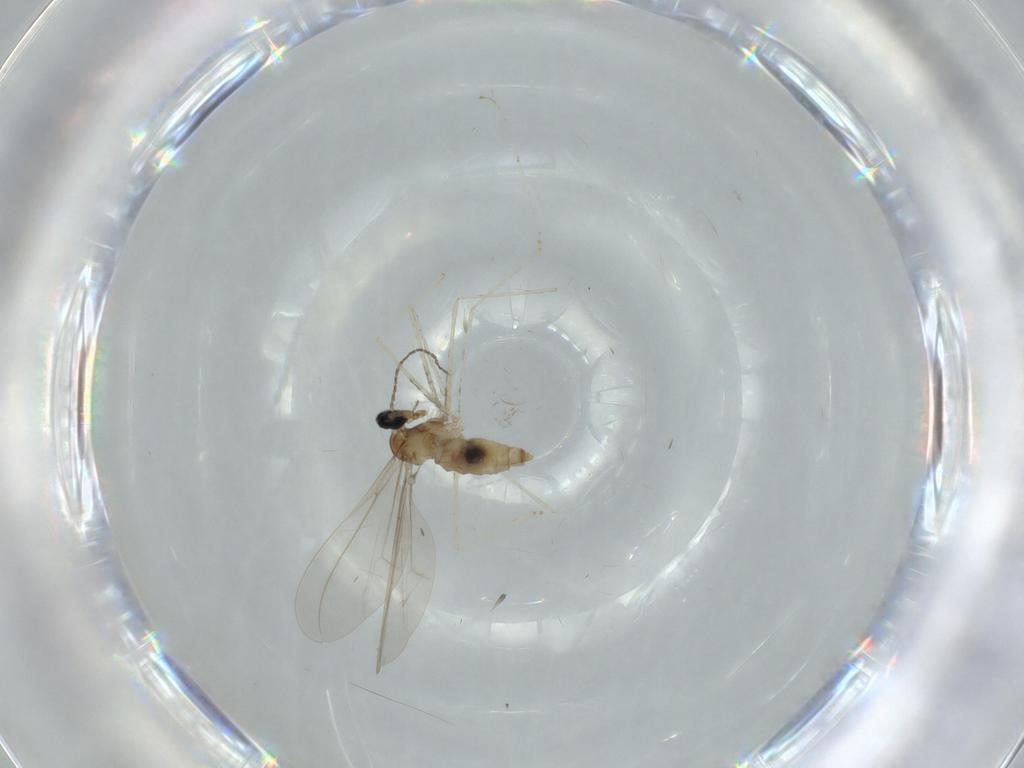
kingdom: Animalia
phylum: Arthropoda
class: Insecta
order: Diptera
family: Cecidomyiidae
